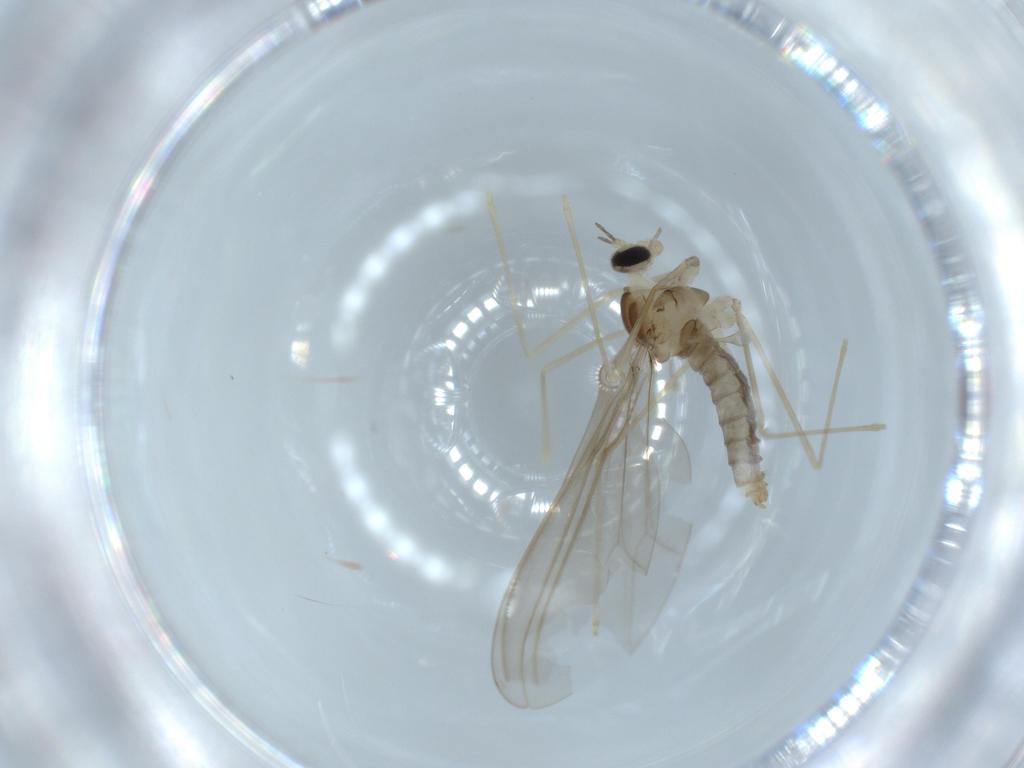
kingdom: Animalia
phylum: Arthropoda
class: Insecta
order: Diptera
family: Cecidomyiidae
